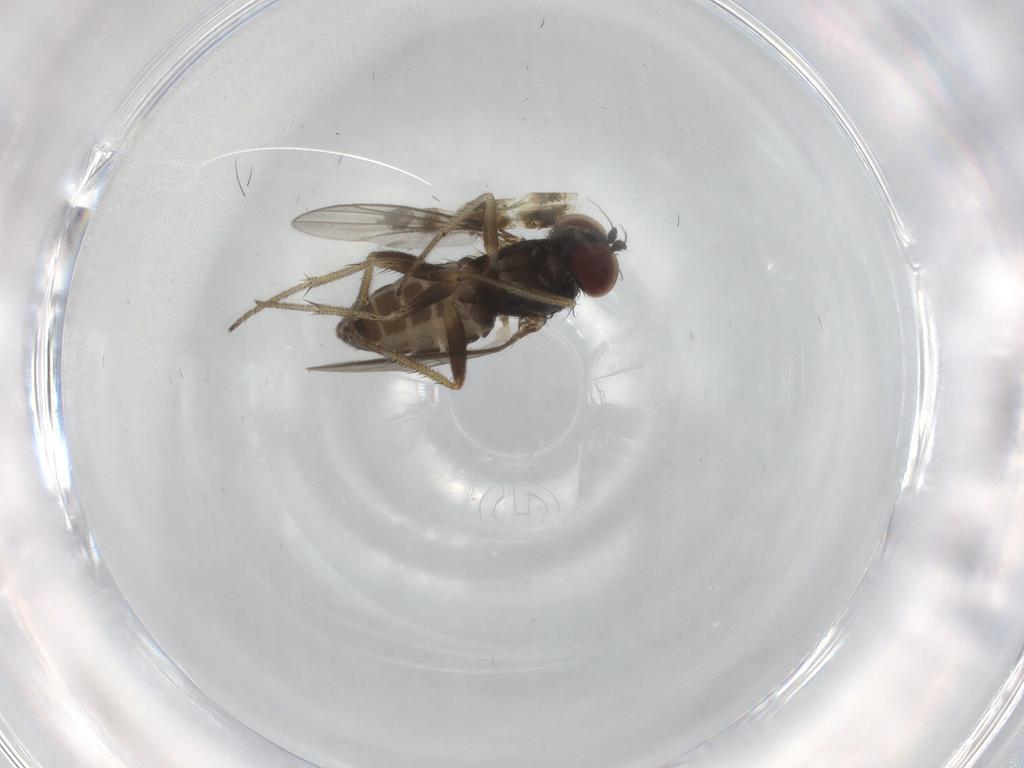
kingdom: Animalia
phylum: Arthropoda
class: Insecta
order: Diptera
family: Dolichopodidae
